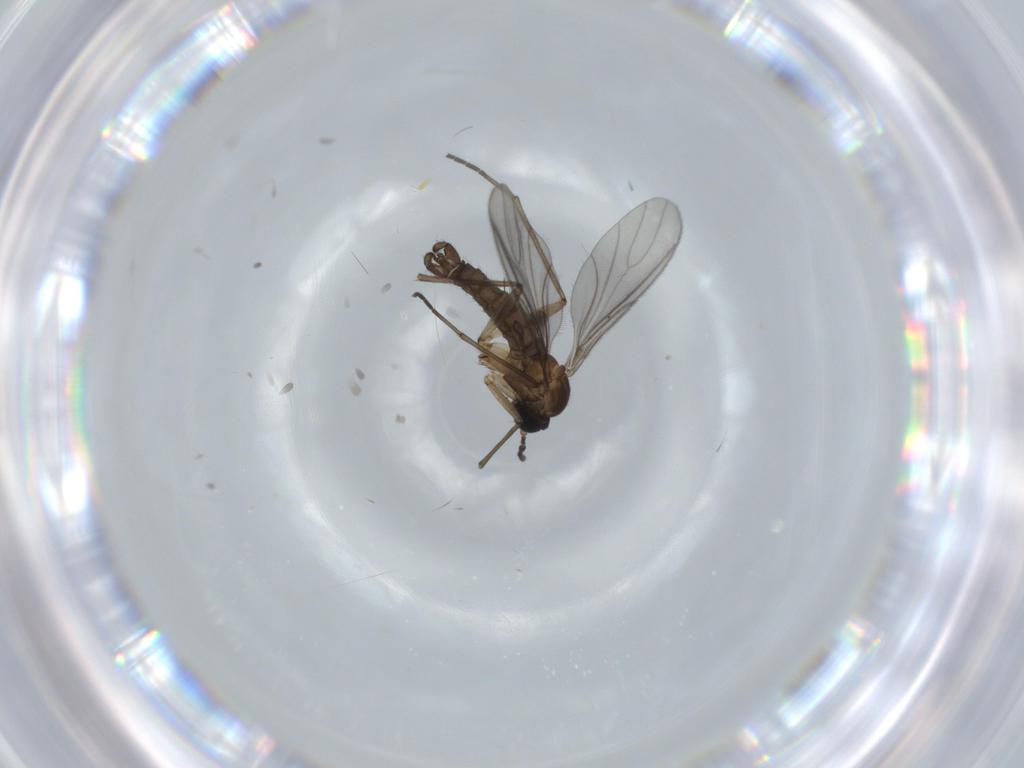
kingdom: Animalia
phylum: Arthropoda
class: Insecta
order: Diptera
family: Sciaridae
